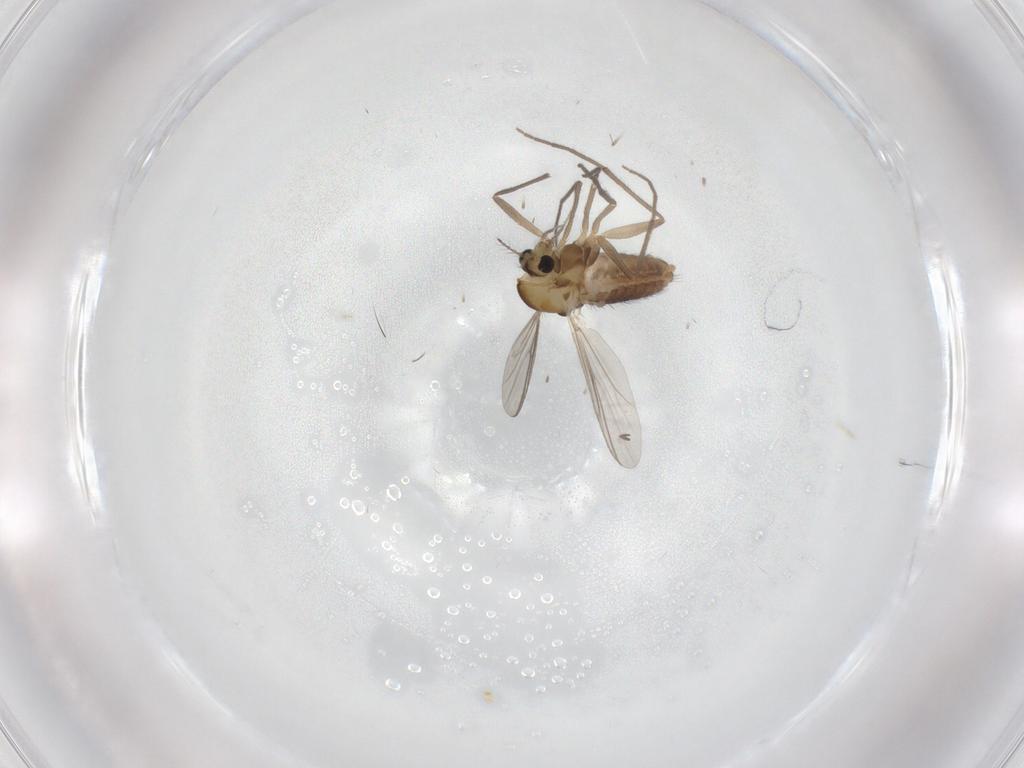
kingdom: Animalia
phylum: Arthropoda
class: Insecta
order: Diptera
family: Chironomidae
